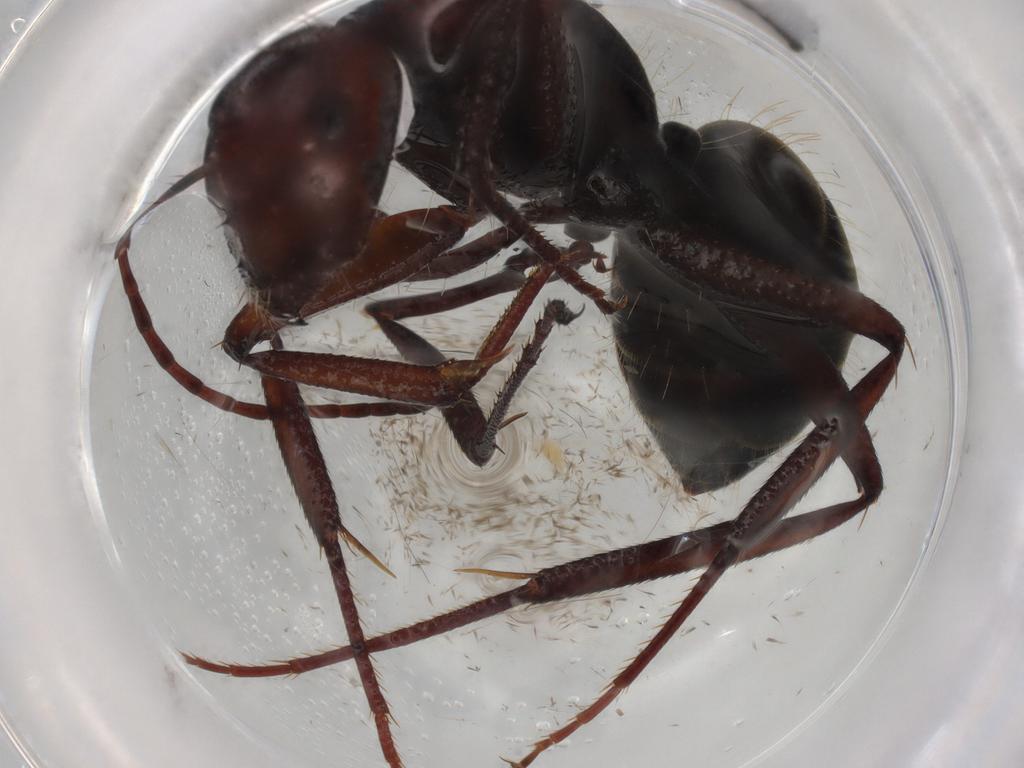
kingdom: Animalia
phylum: Arthropoda
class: Insecta
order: Hymenoptera
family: Formicidae
